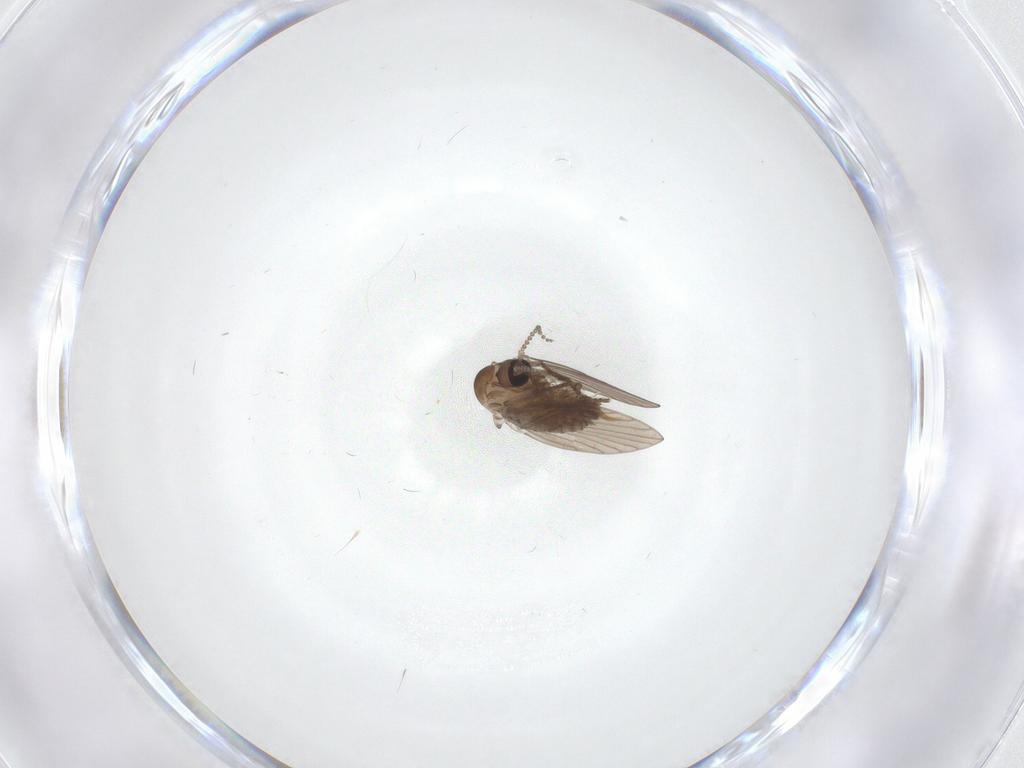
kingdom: Animalia
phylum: Arthropoda
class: Insecta
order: Diptera
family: Psychodidae
